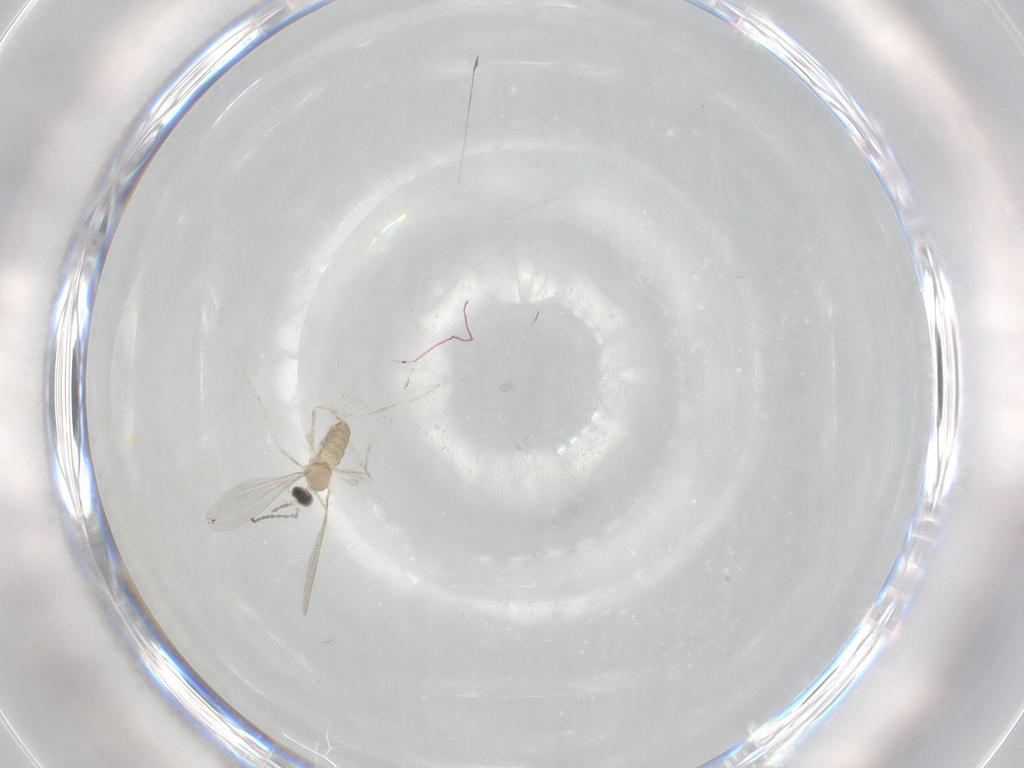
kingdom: Animalia
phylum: Arthropoda
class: Insecta
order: Diptera
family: Cecidomyiidae
